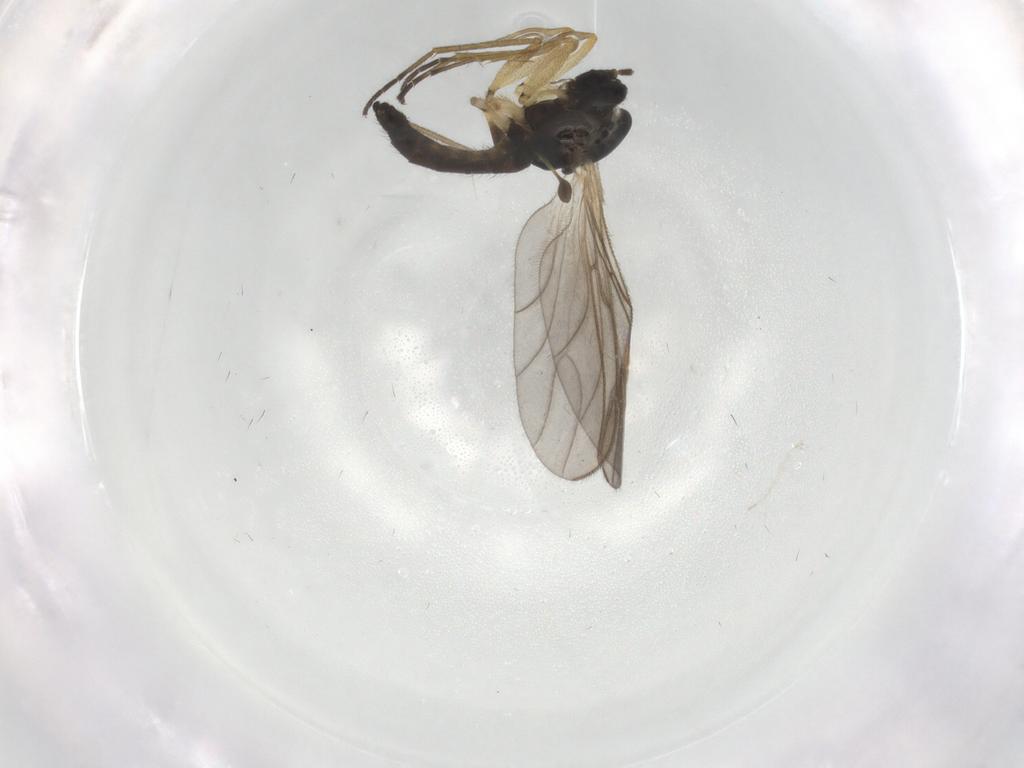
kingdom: Animalia
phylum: Arthropoda
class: Insecta
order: Diptera
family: Sciaridae
